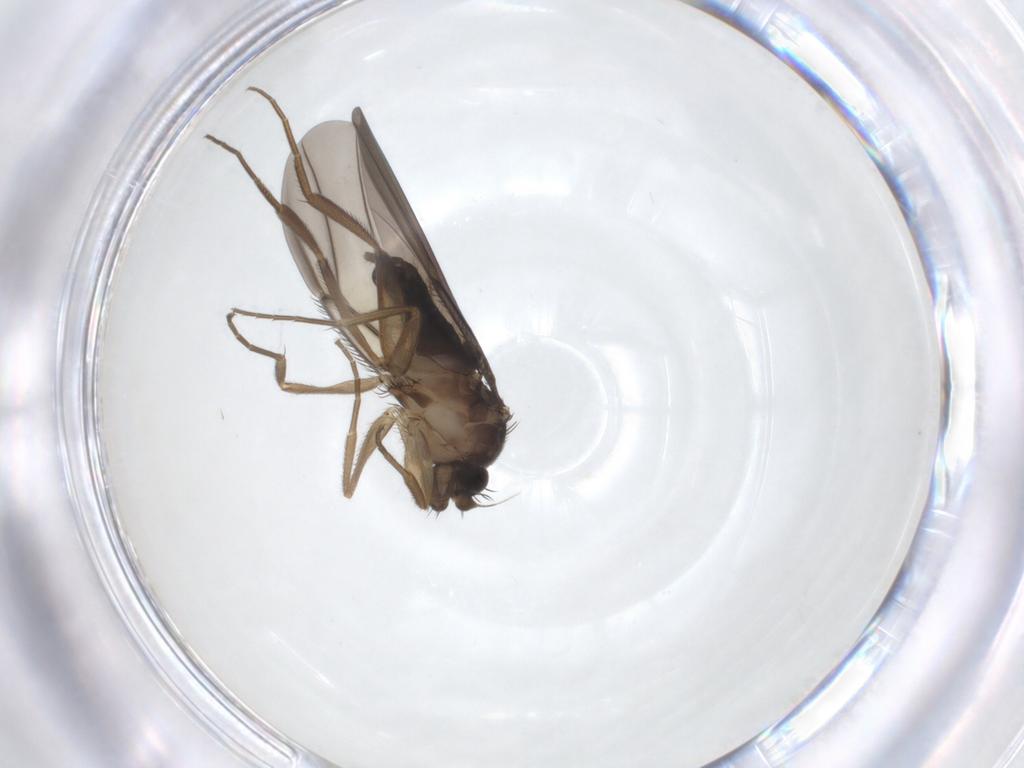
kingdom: Animalia
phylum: Arthropoda
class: Insecta
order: Diptera
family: Phoridae
